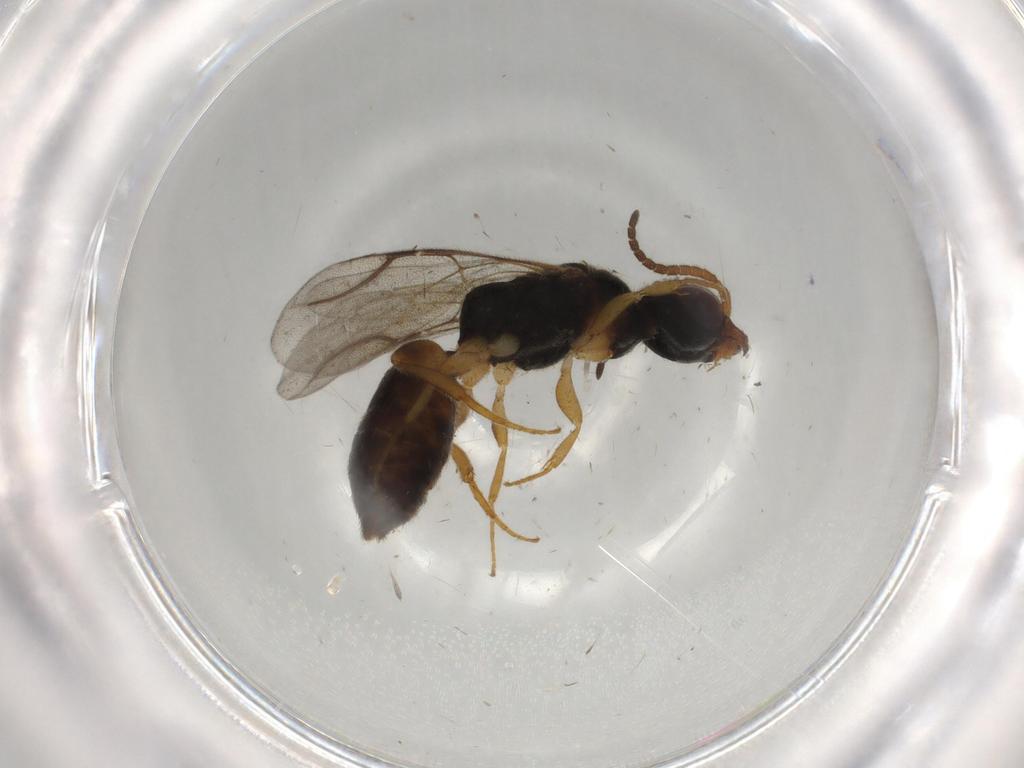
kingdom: Animalia
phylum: Arthropoda
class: Insecta
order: Hymenoptera
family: Bethylidae
